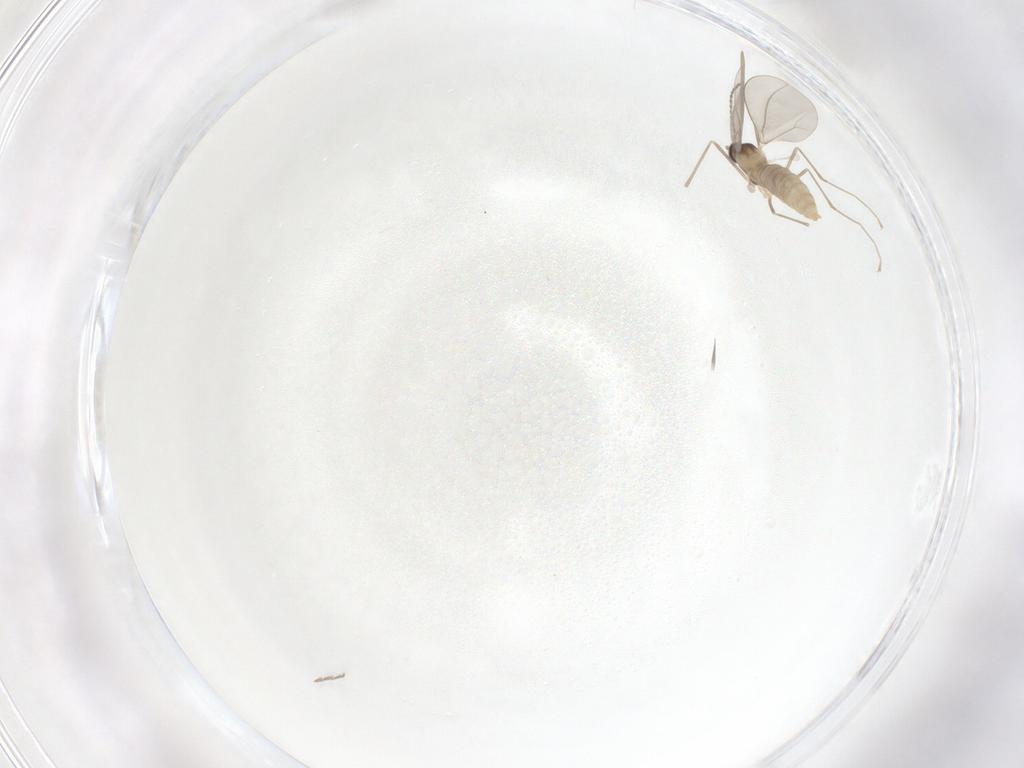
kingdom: Animalia
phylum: Arthropoda
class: Insecta
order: Diptera
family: Cecidomyiidae
